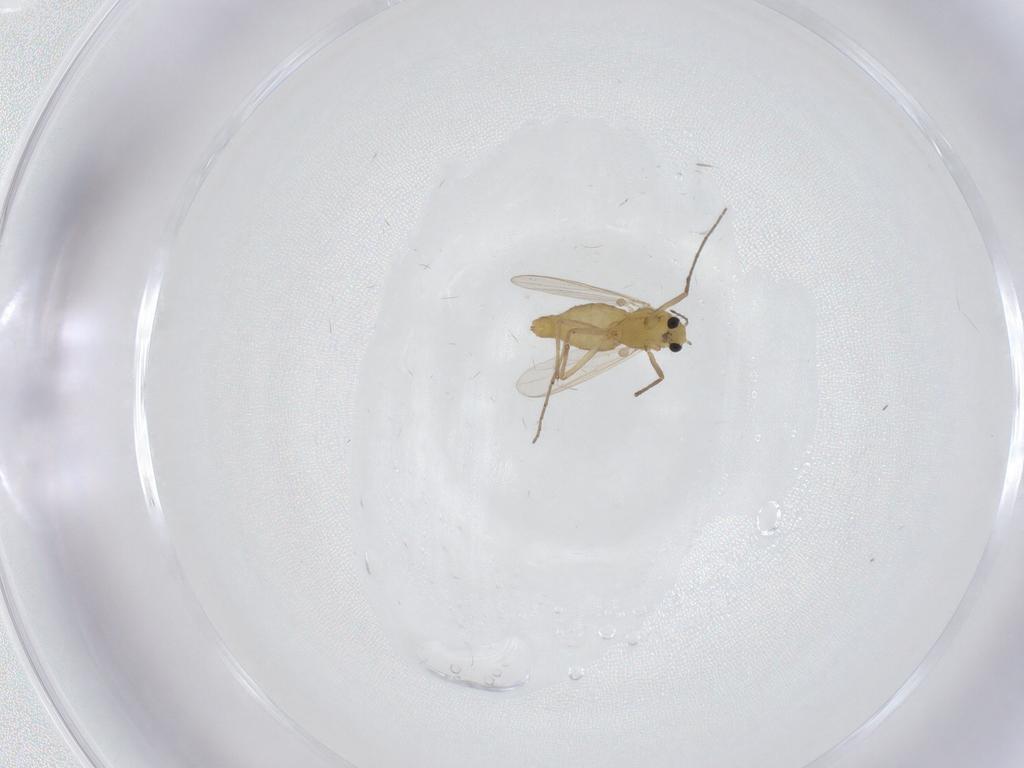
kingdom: Animalia
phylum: Arthropoda
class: Insecta
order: Diptera
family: Chironomidae
